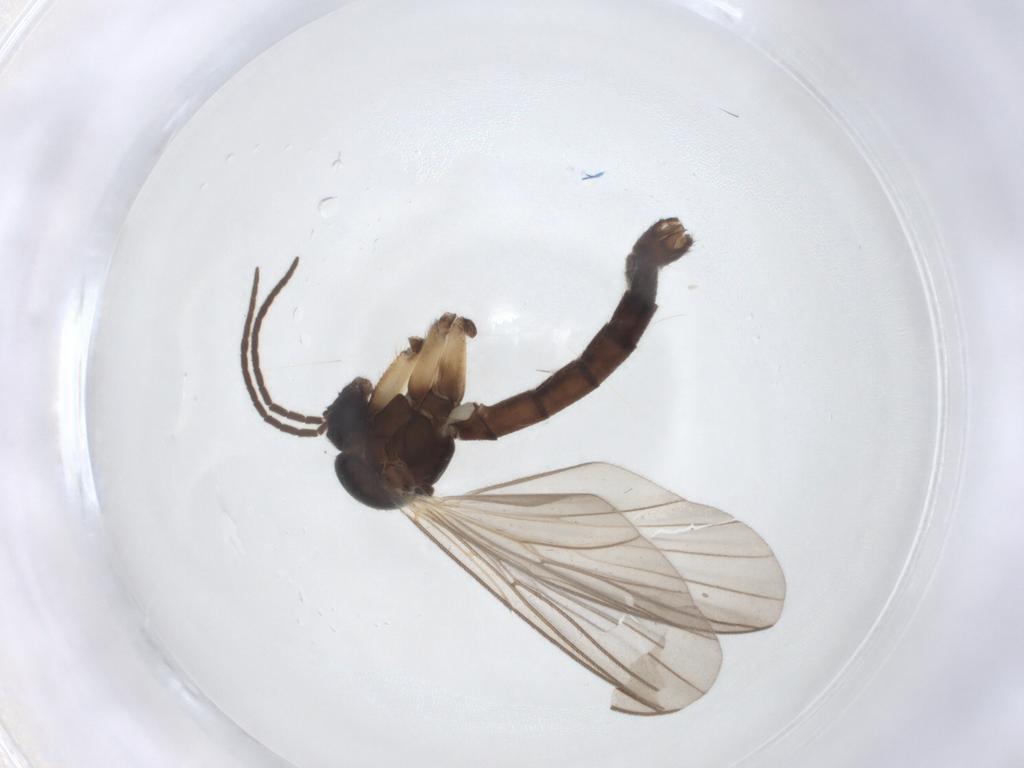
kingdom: Animalia
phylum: Arthropoda
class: Insecta
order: Diptera
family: Mycetophilidae
